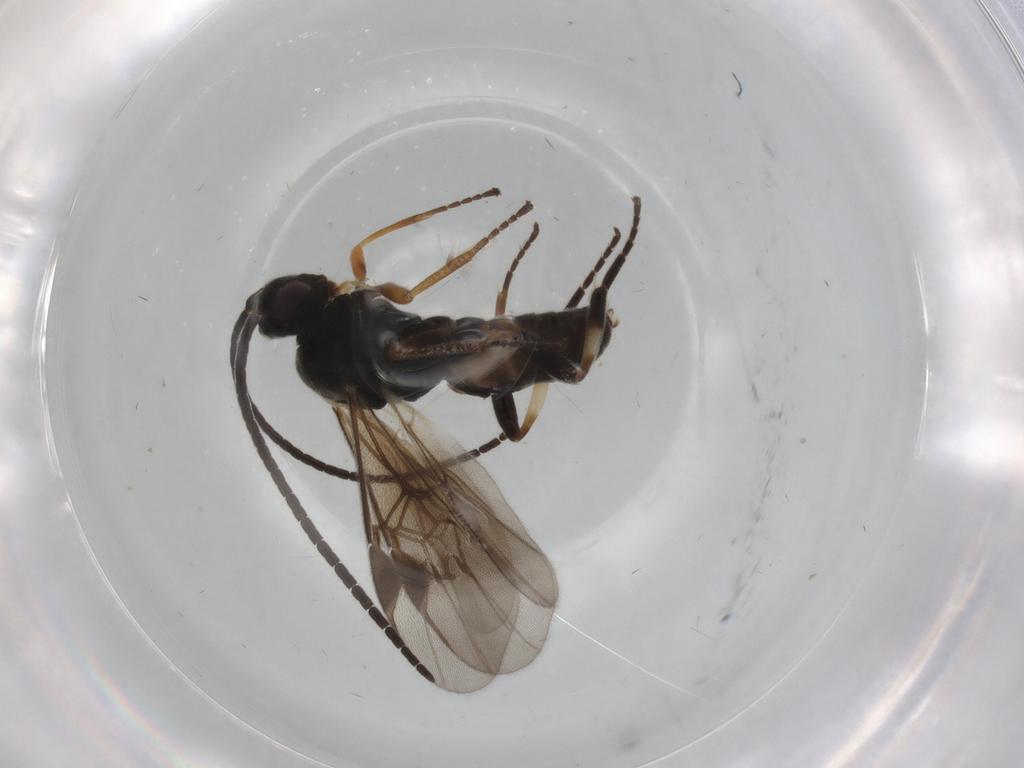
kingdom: Animalia
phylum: Arthropoda
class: Insecta
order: Hymenoptera
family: Braconidae
